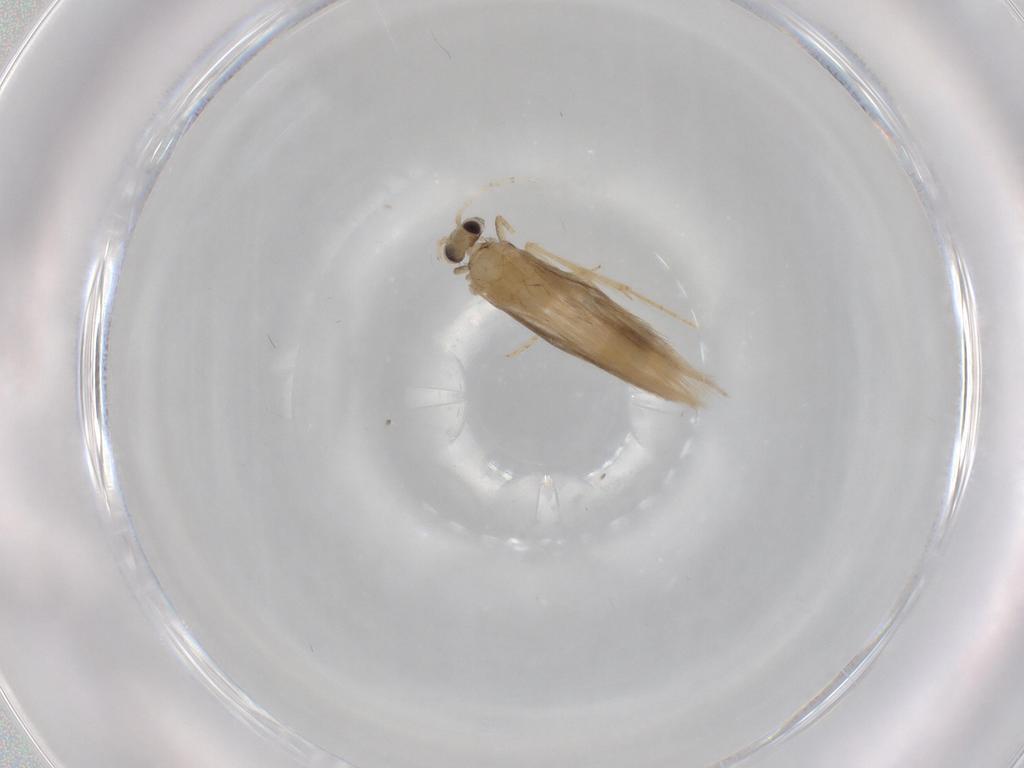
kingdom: Animalia
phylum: Arthropoda
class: Insecta
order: Trichoptera
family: Hydroptilidae
